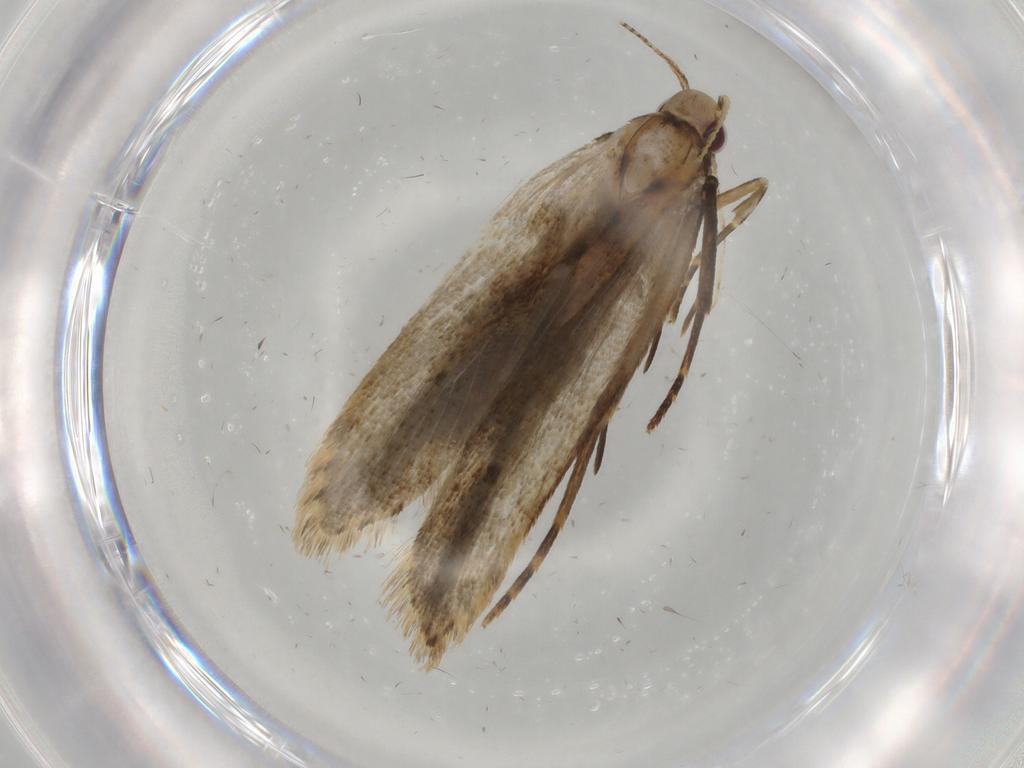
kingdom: Animalia
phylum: Arthropoda
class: Insecta
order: Lepidoptera
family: Gelechiidae
